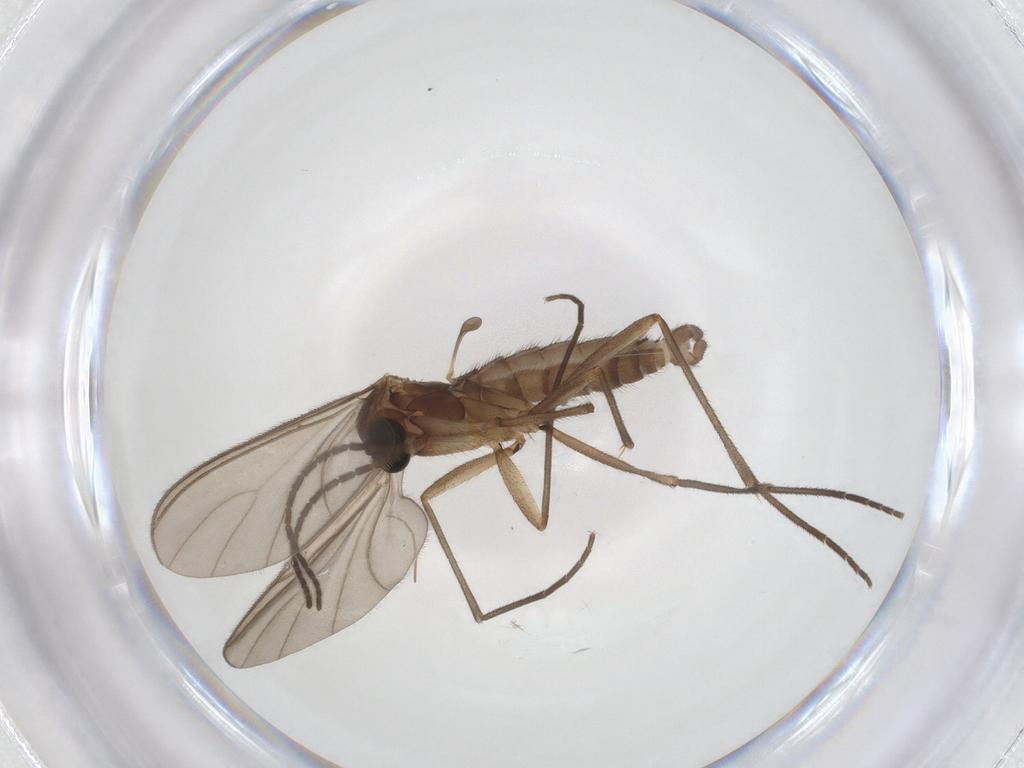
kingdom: Animalia
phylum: Arthropoda
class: Insecta
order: Diptera
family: Sciaridae
